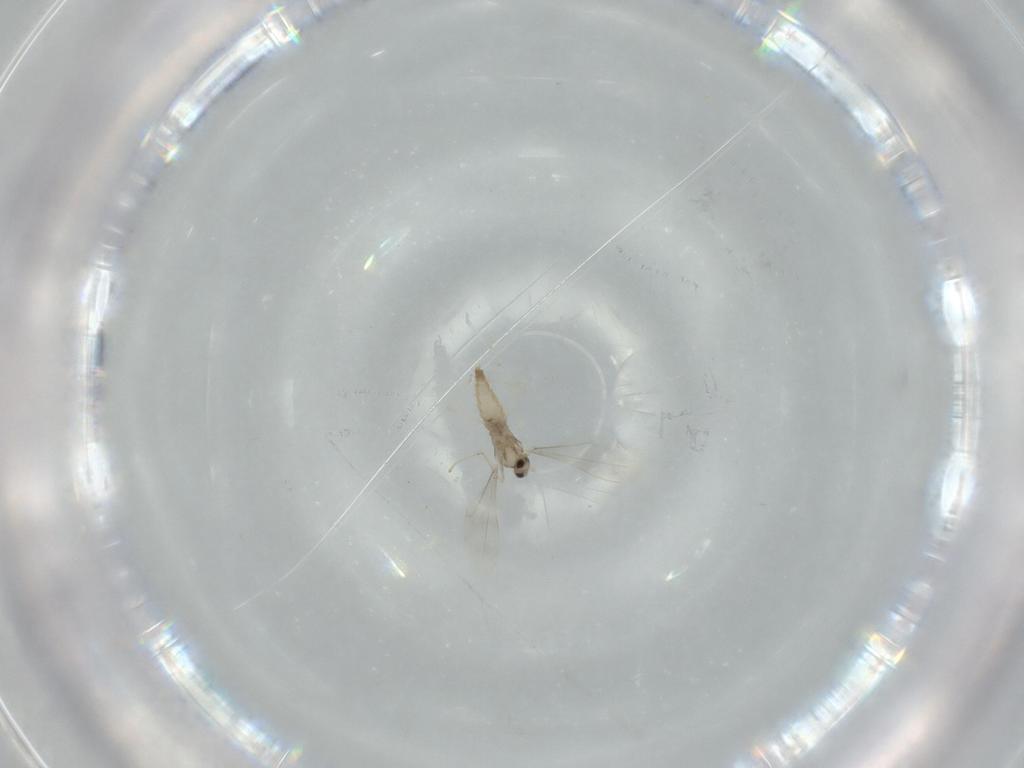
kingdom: Animalia
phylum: Arthropoda
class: Insecta
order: Diptera
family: Cecidomyiidae
